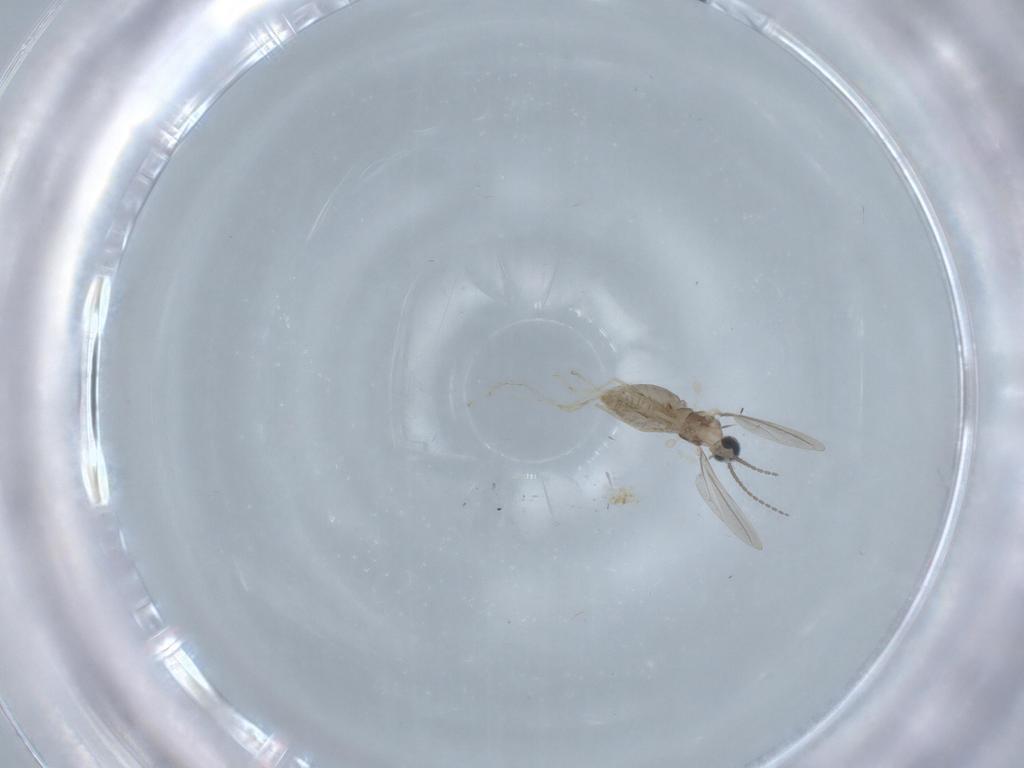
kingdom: Animalia
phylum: Arthropoda
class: Insecta
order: Diptera
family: Cecidomyiidae
